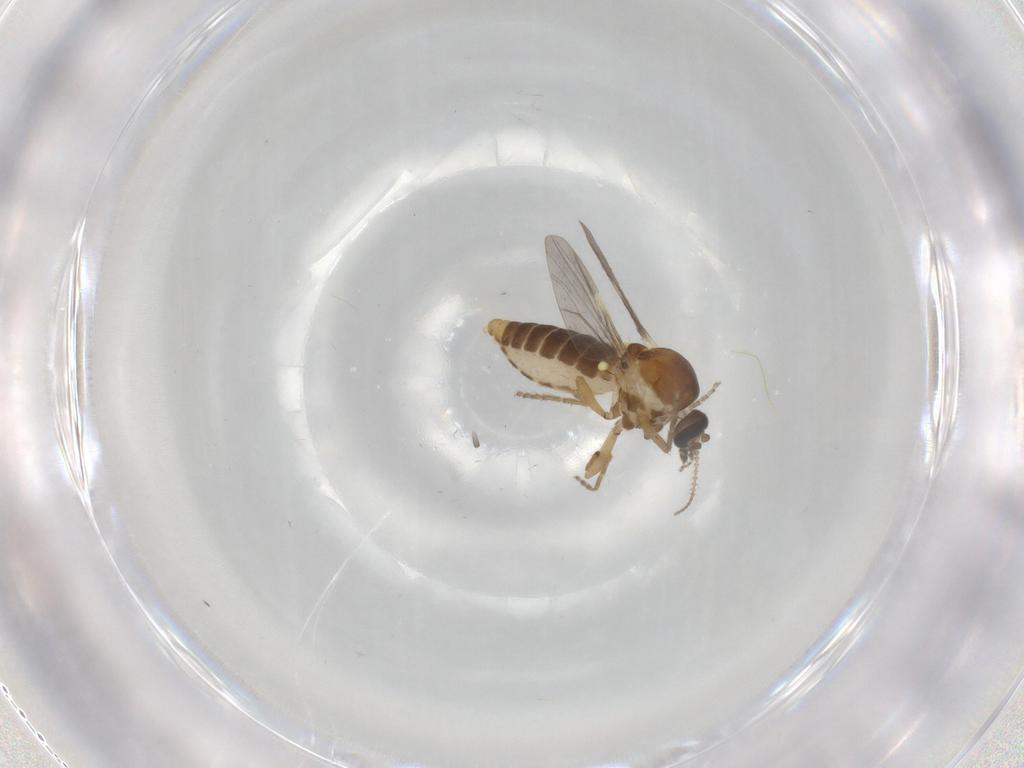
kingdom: Animalia
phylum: Arthropoda
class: Insecta
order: Diptera
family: Ceratopogonidae
